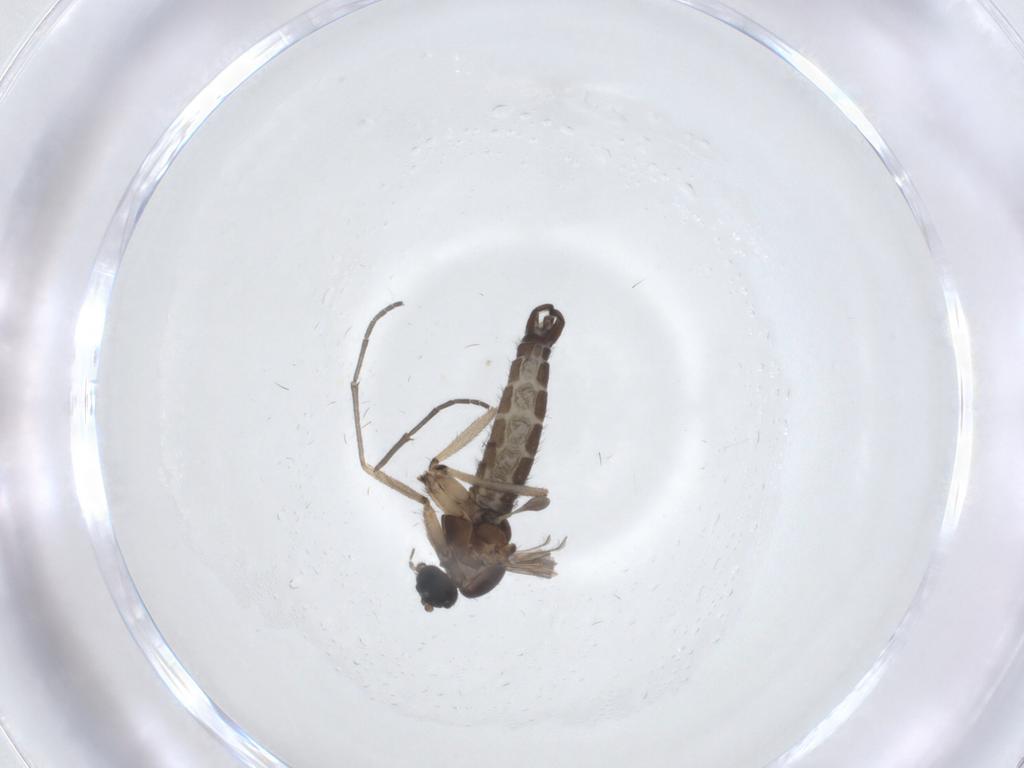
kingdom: Animalia
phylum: Arthropoda
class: Insecta
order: Diptera
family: Sciaridae
